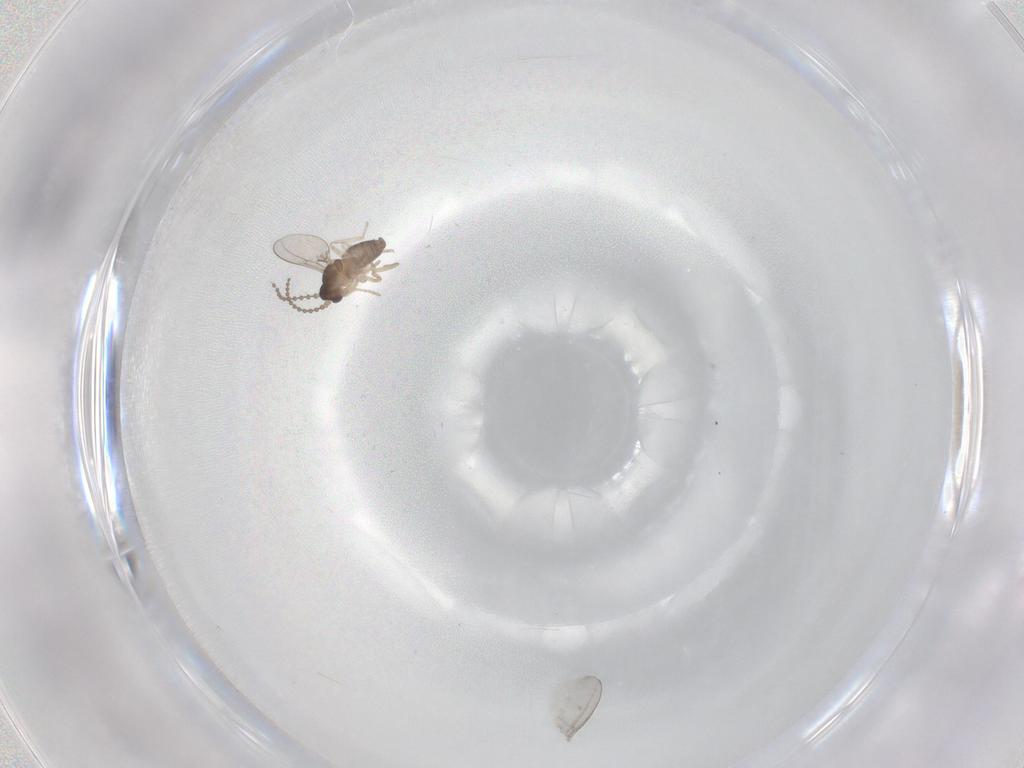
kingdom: Animalia
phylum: Arthropoda
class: Insecta
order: Diptera
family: Cecidomyiidae
